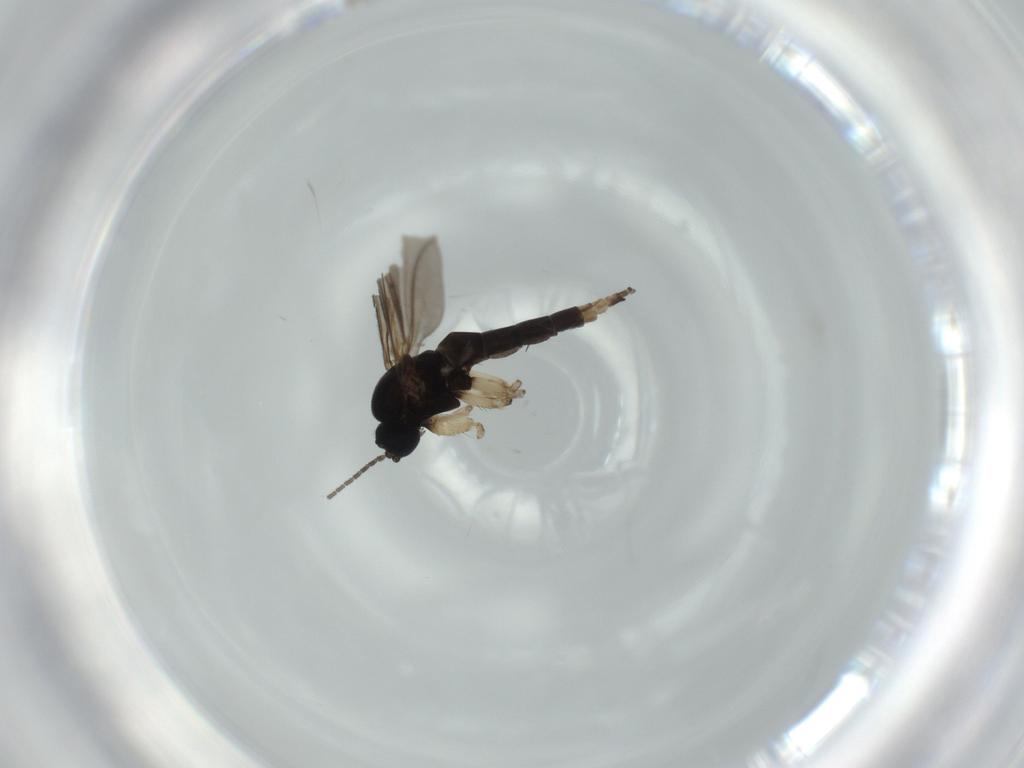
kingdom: Animalia
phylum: Arthropoda
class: Insecta
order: Diptera
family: Sciaridae
